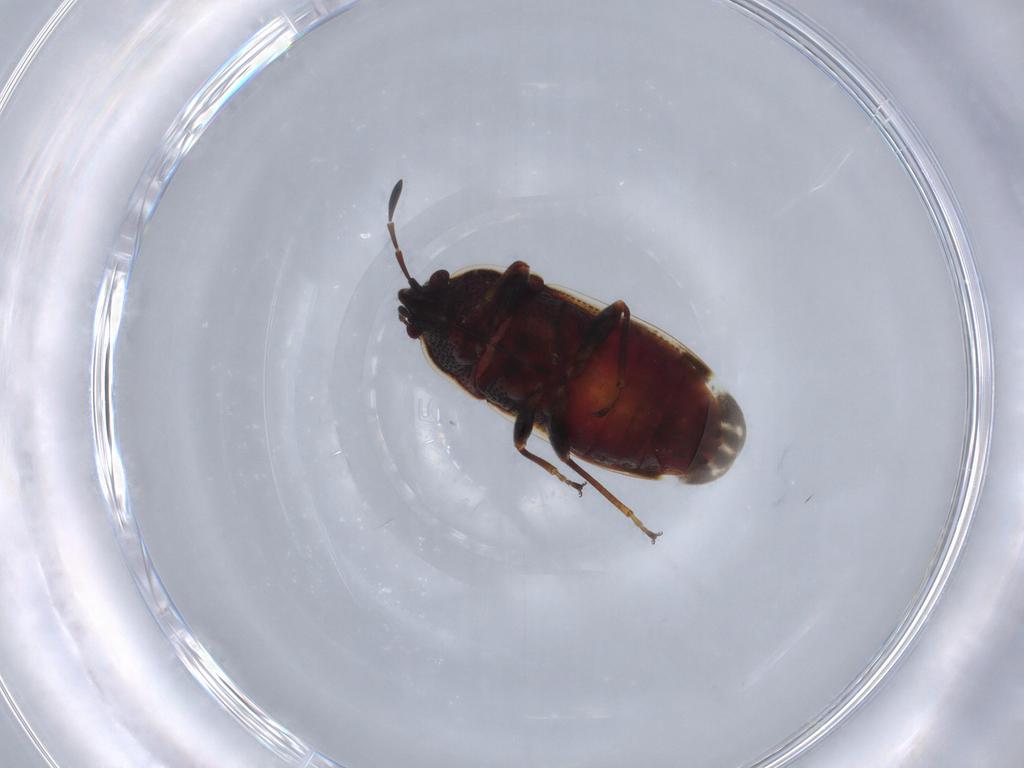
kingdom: Animalia
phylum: Arthropoda
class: Insecta
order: Hemiptera
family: Rhyparochromidae
